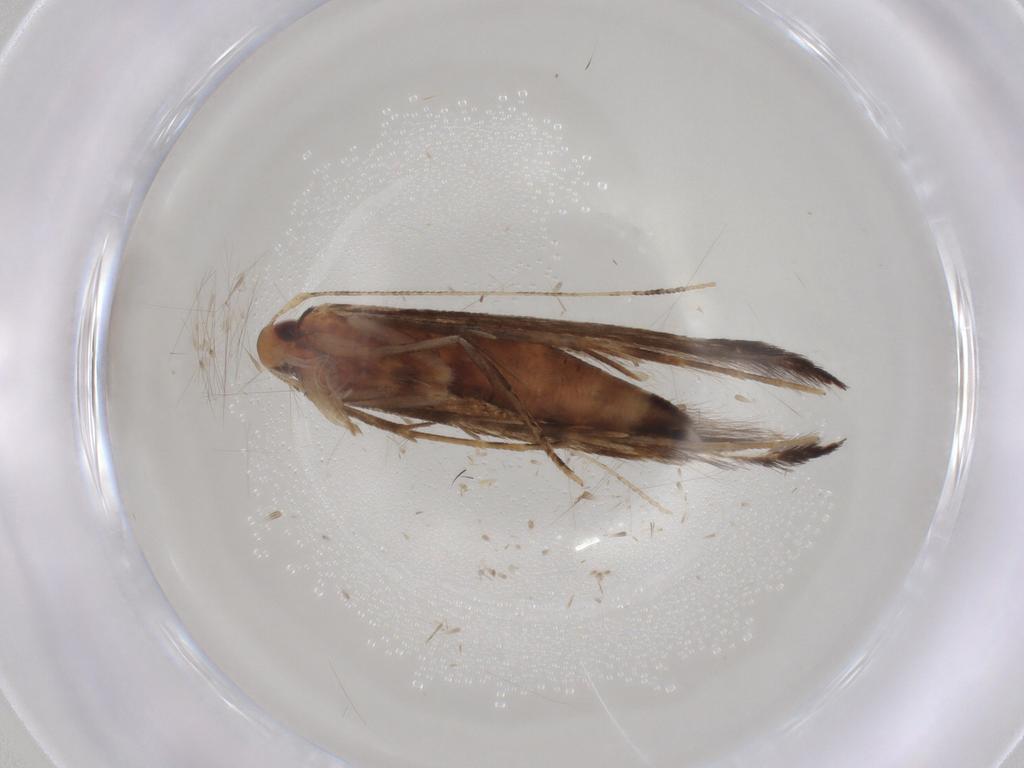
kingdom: Animalia
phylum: Arthropoda
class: Insecta
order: Lepidoptera
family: Cosmopterigidae
